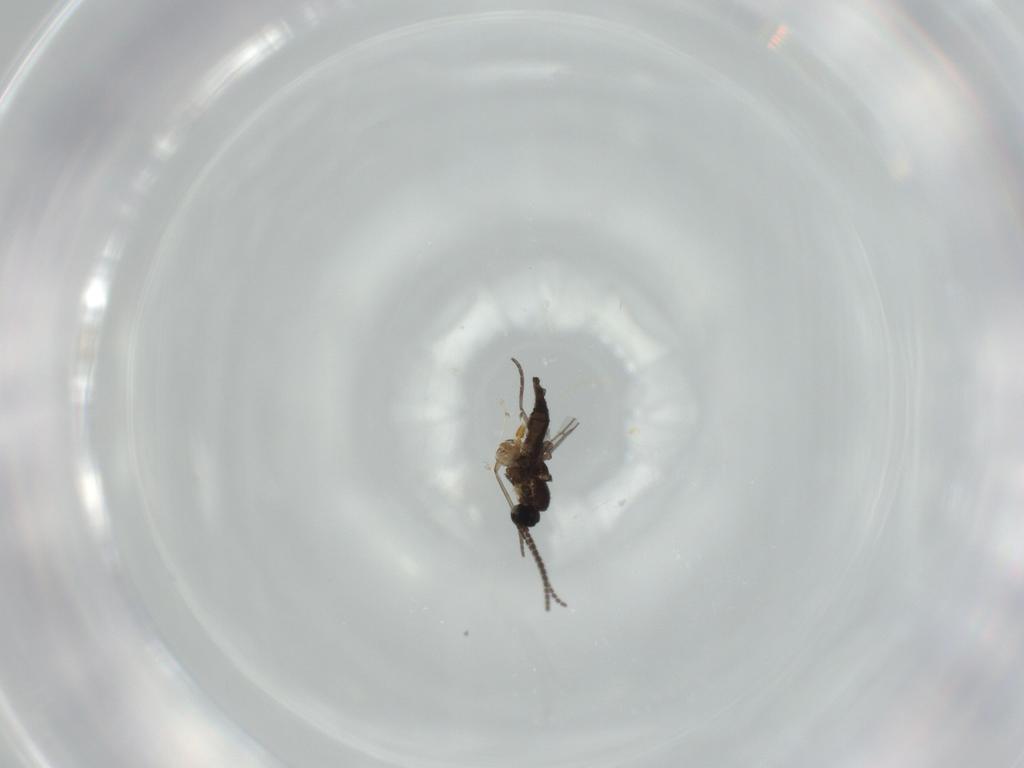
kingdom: Animalia
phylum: Arthropoda
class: Insecta
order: Diptera
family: Sciaridae
